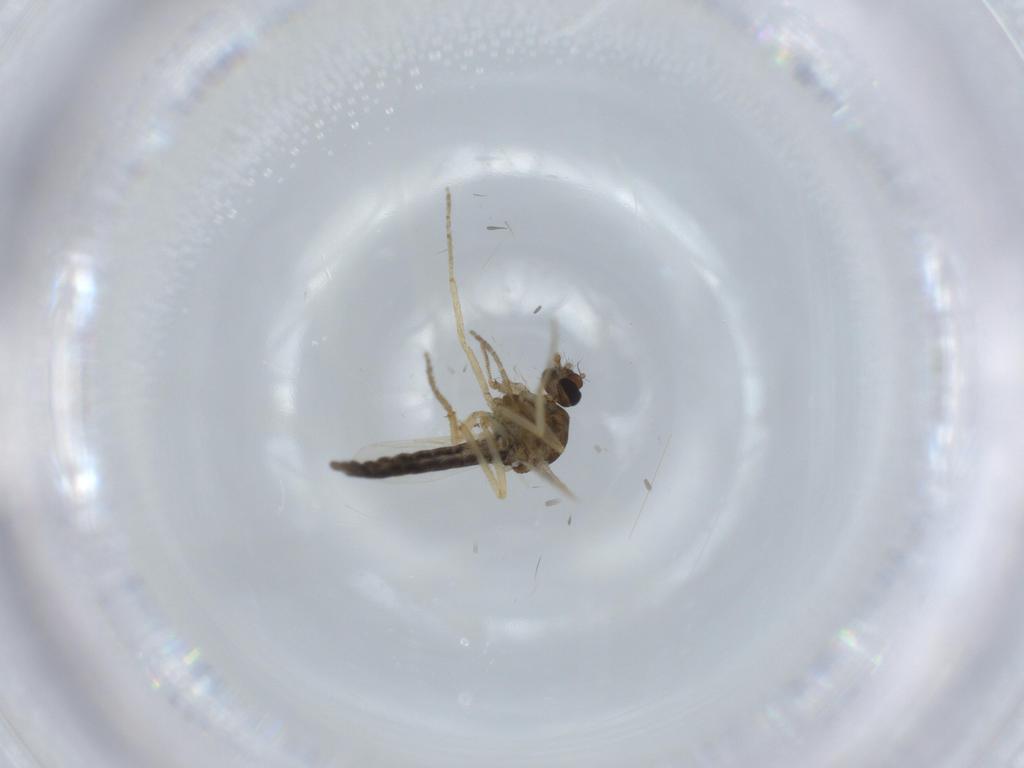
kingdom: Animalia
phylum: Arthropoda
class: Insecta
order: Diptera
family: Ceratopogonidae
